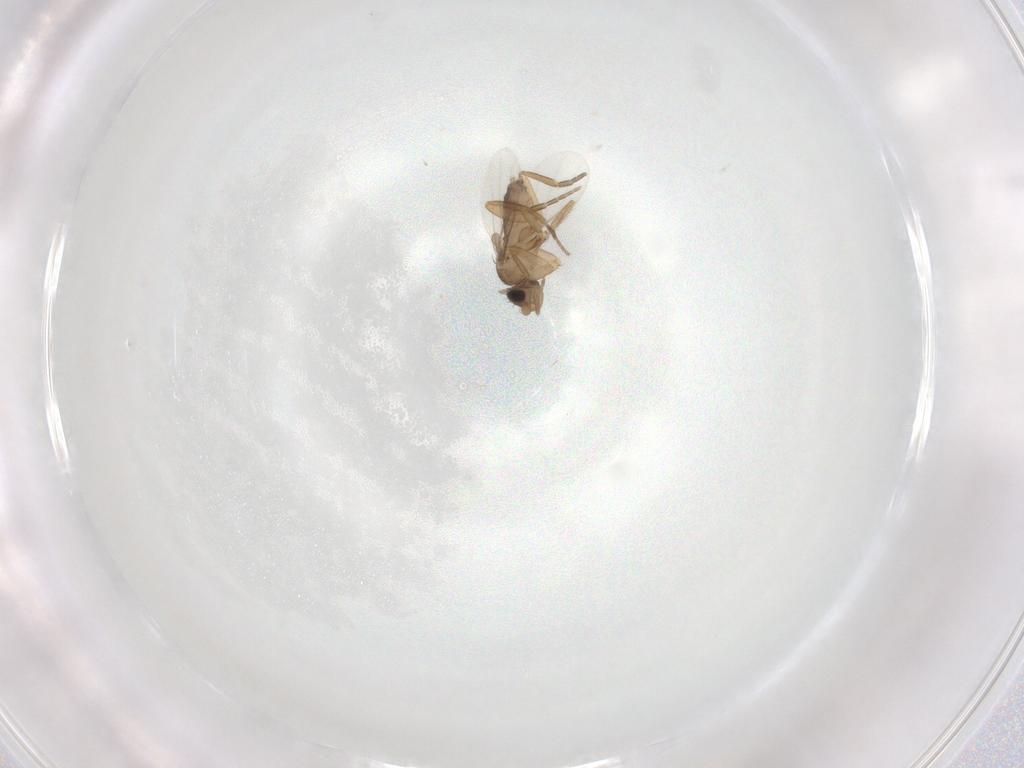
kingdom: Animalia
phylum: Arthropoda
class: Insecta
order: Diptera
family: Phoridae
